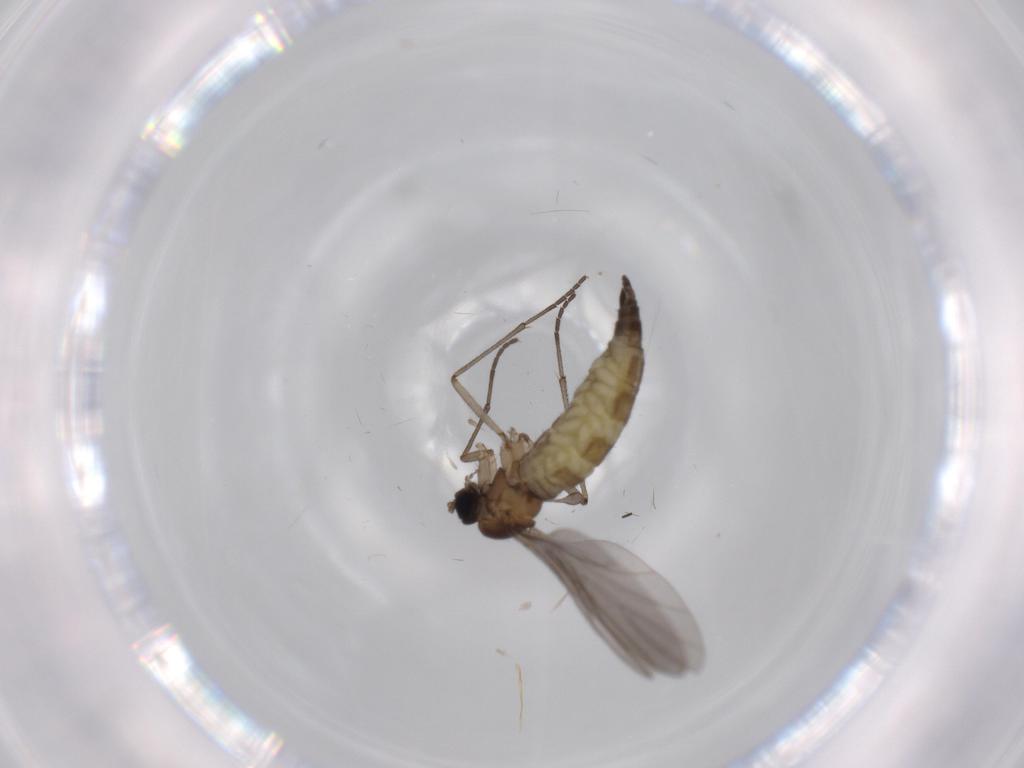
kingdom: Animalia
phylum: Arthropoda
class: Insecta
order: Diptera
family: Sciaridae
